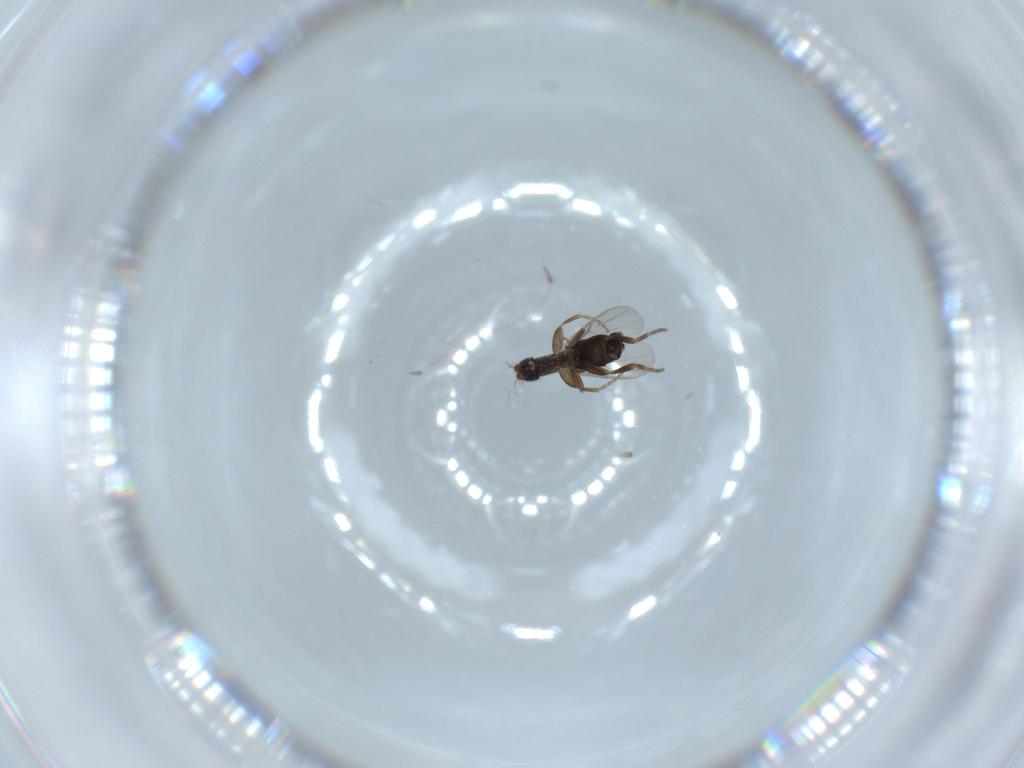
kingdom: Animalia
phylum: Arthropoda
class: Insecta
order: Diptera
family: Phoridae
